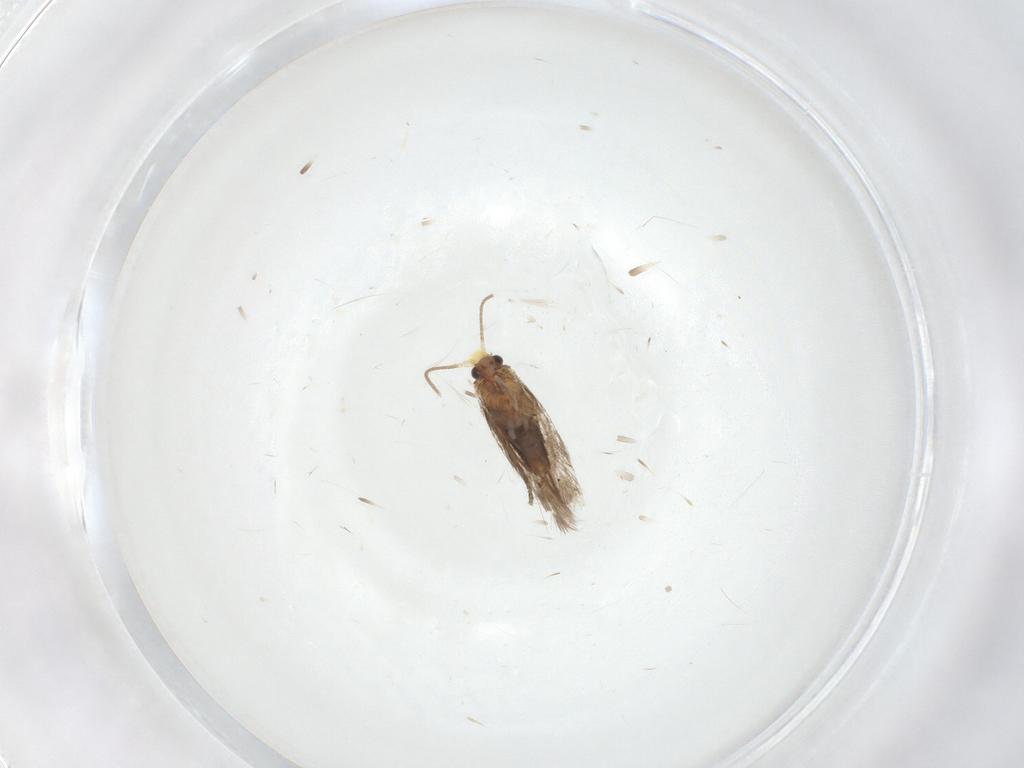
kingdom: Animalia
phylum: Arthropoda
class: Insecta
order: Lepidoptera
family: Nepticulidae
